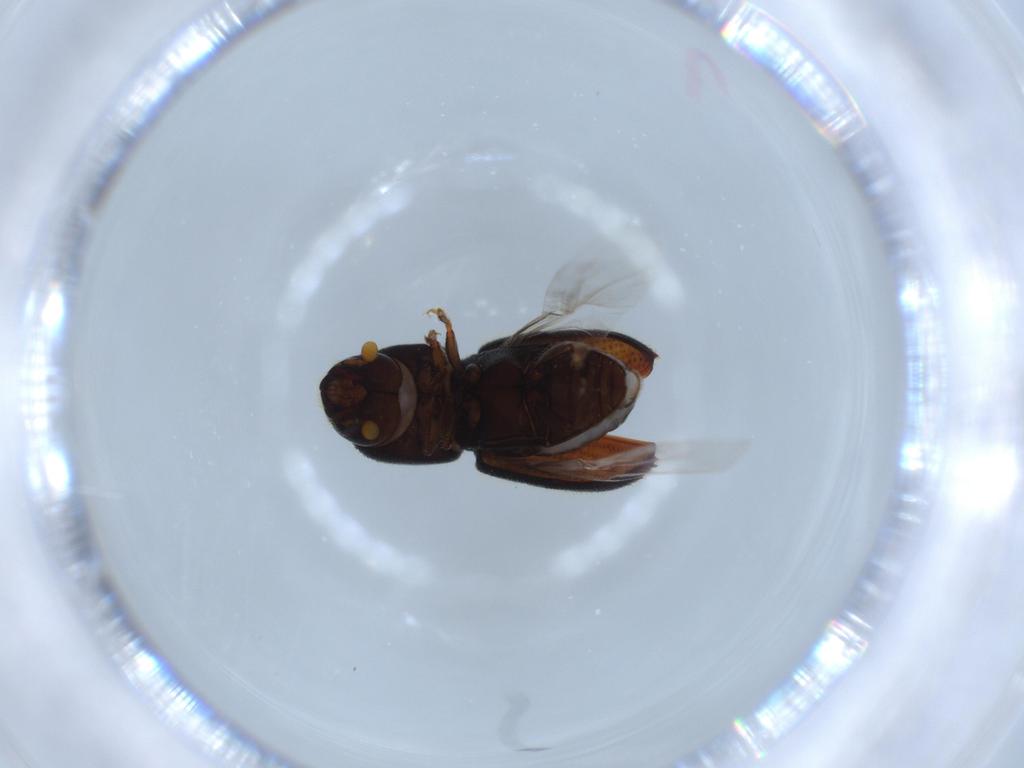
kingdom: Animalia
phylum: Arthropoda
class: Insecta
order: Coleoptera
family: Curculionidae
